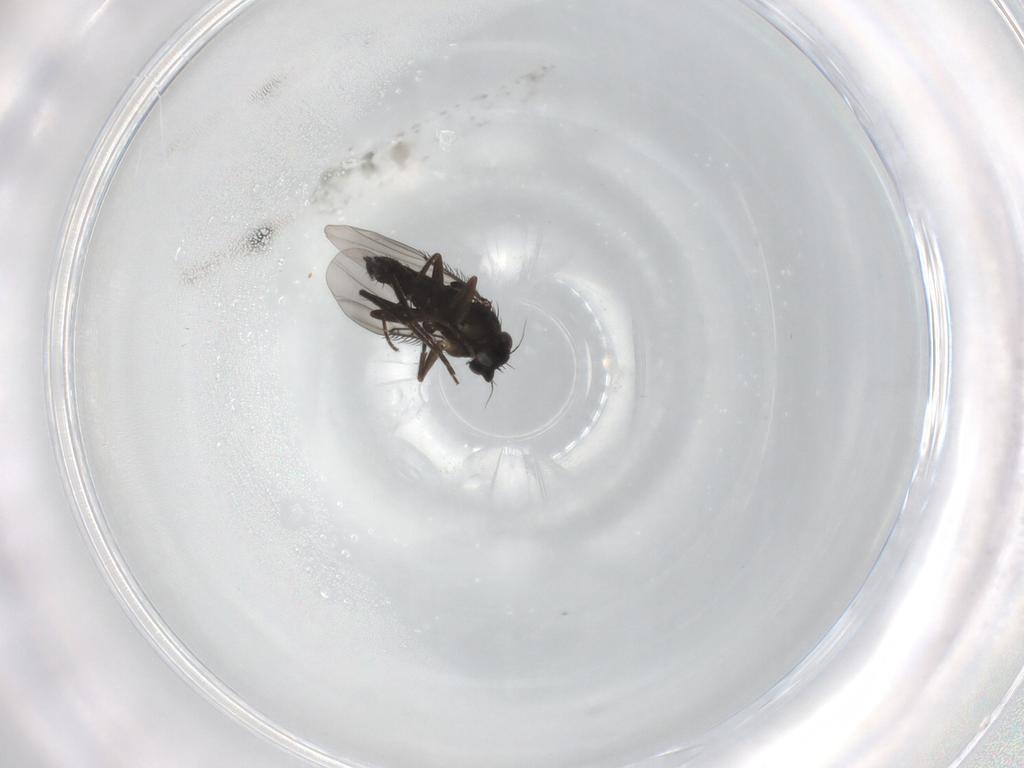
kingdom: Animalia
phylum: Arthropoda
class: Insecta
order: Diptera
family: Phoridae
